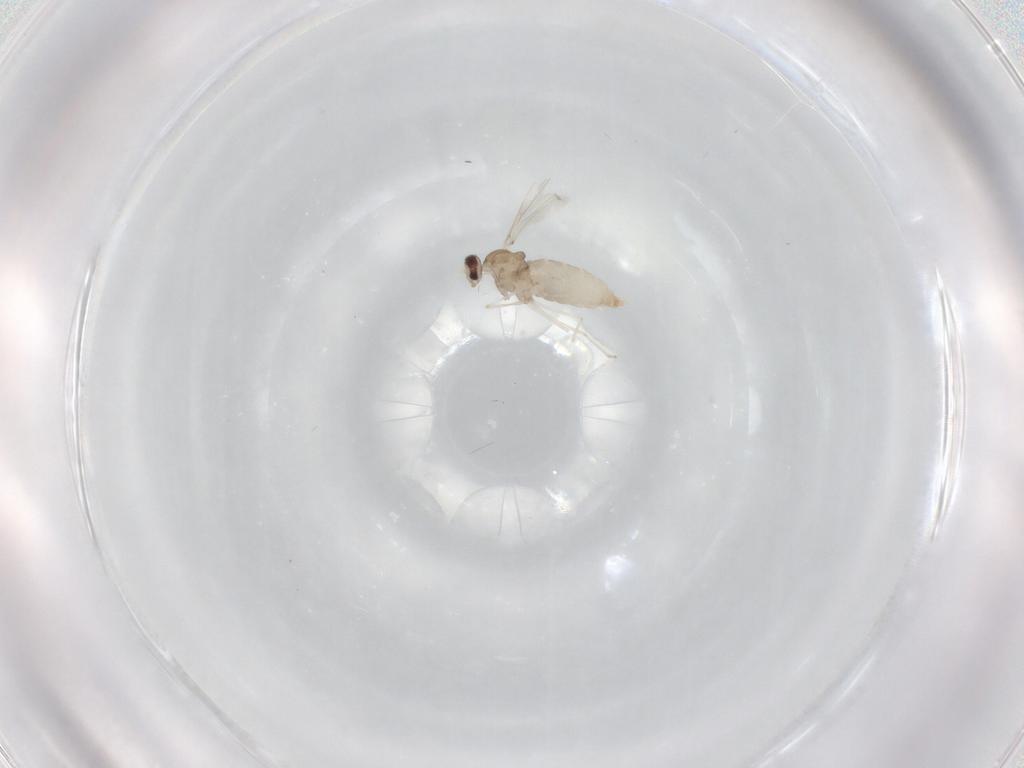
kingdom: Animalia
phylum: Arthropoda
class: Insecta
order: Diptera
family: Cecidomyiidae
